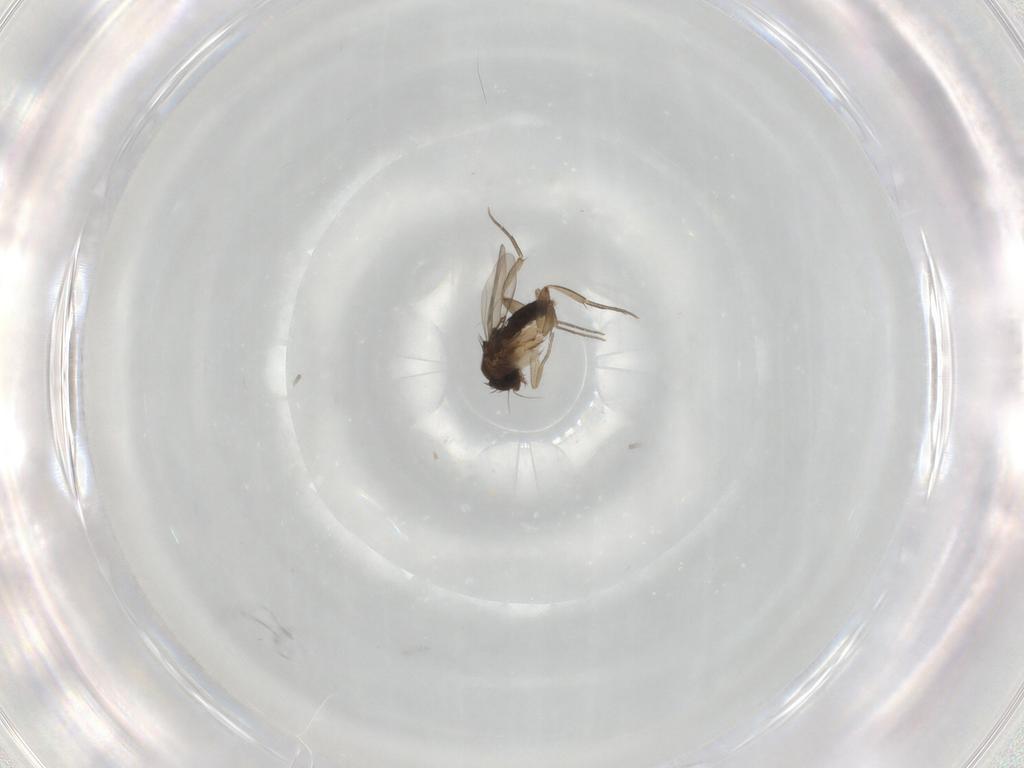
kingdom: Animalia
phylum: Arthropoda
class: Insecta
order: Diptera
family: Phoridae
